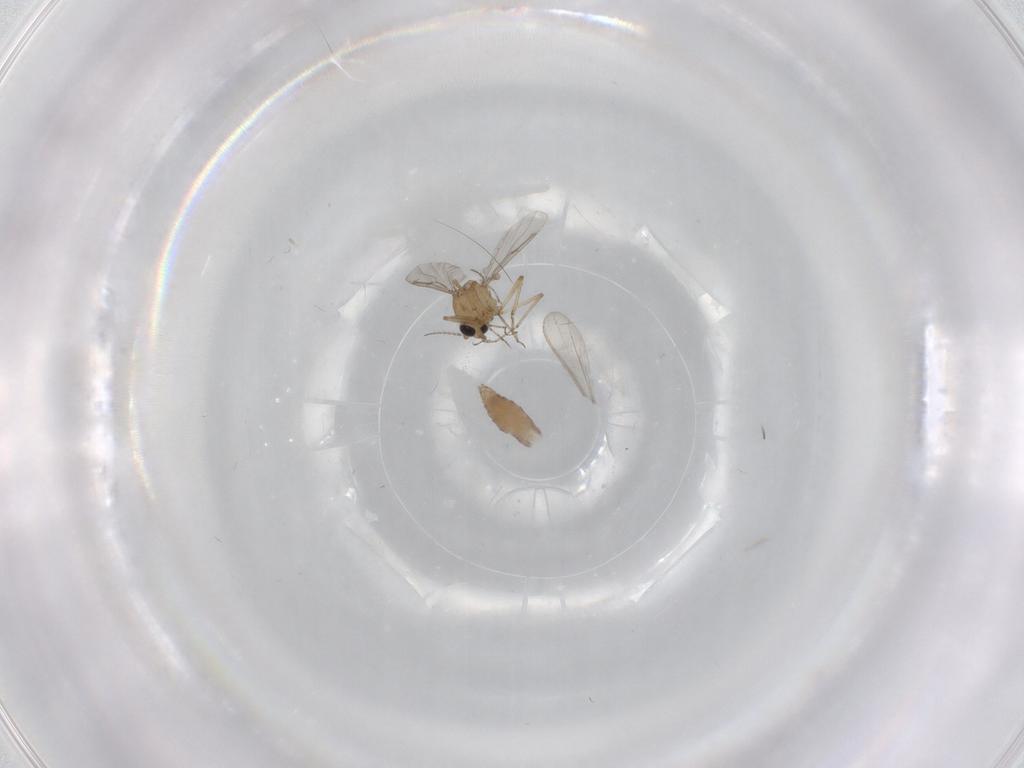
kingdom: Animalia
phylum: Arthropoda
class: Insecta
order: Diptera
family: Ceratopogonidae
